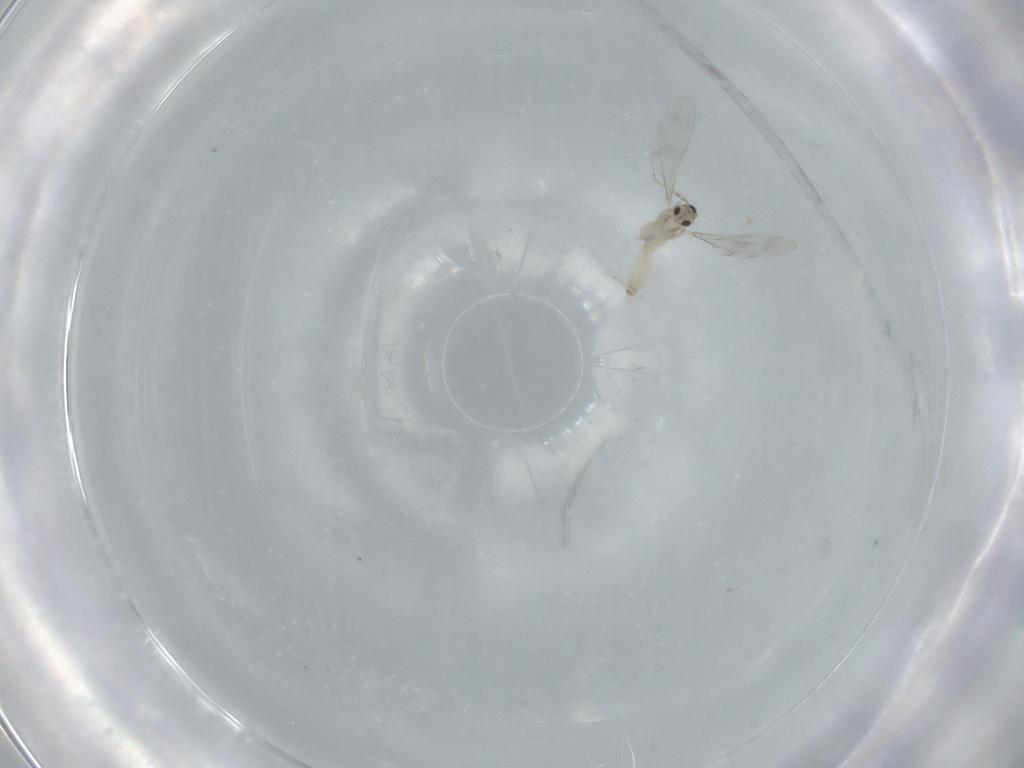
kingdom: Animalia
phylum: Arthropoda
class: Insecta
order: Diptera
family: Cecidomyiidae
